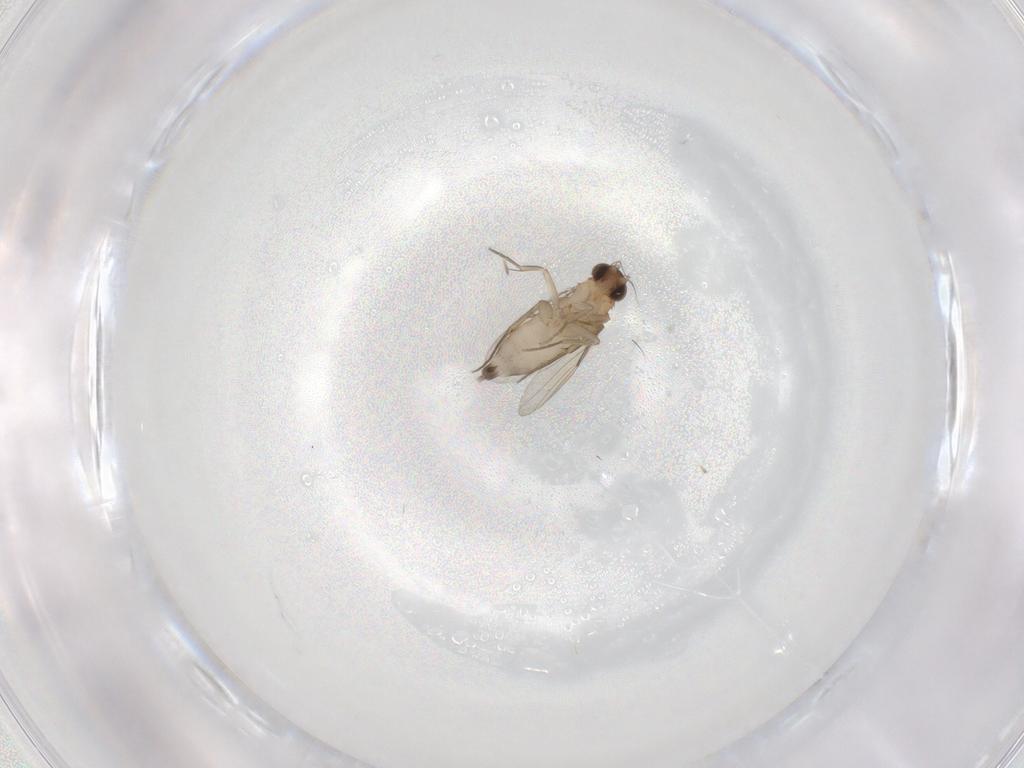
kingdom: Animalia
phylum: Arthropoda
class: Insecta
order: Diptera
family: Phoridae
